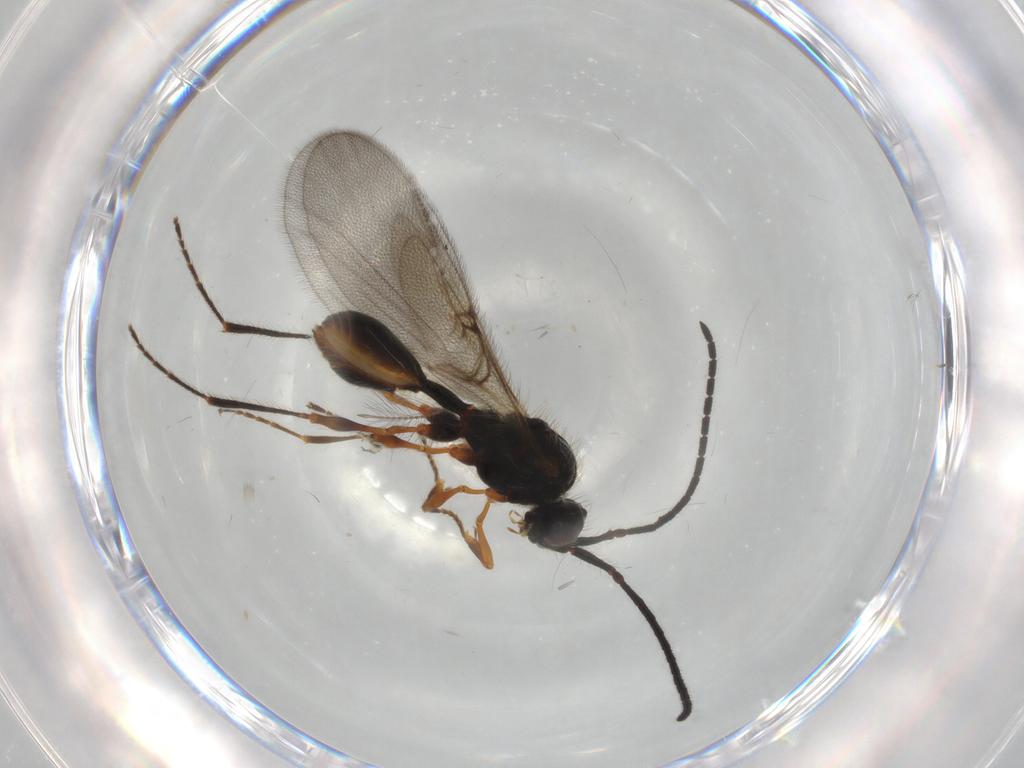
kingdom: Animalia
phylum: Arthropoda
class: Insecta
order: Hymenoptera
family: Diapriidae
